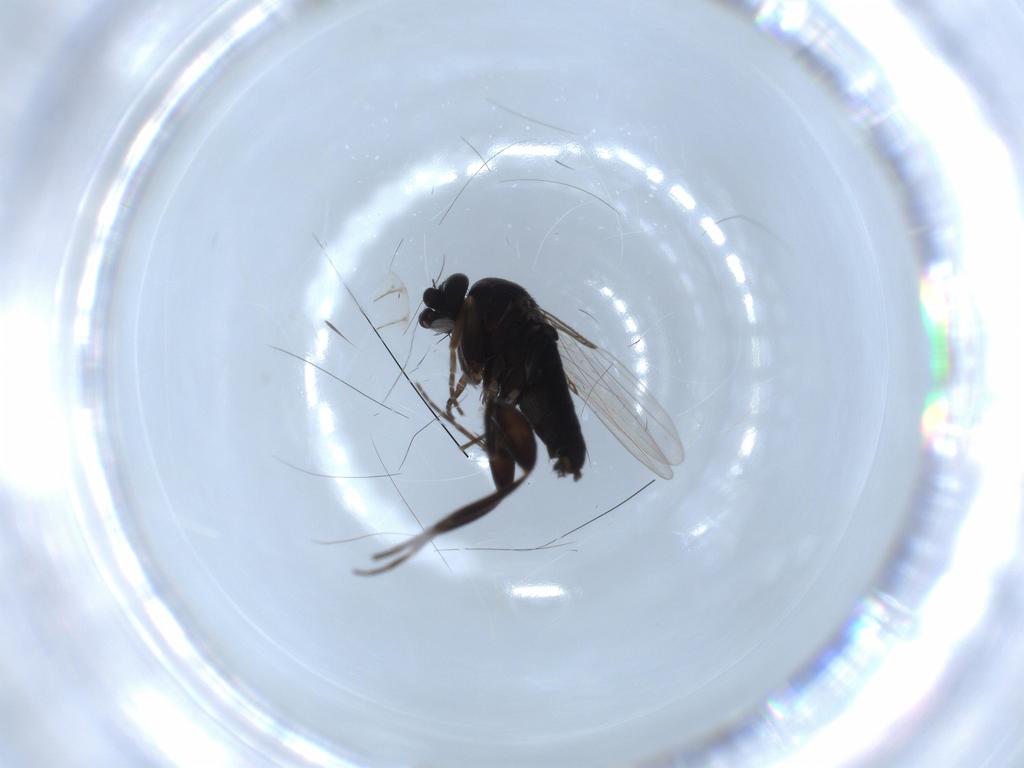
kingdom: Animalia
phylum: Arthropoda
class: Insecta
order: Diptera
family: Phoridae
